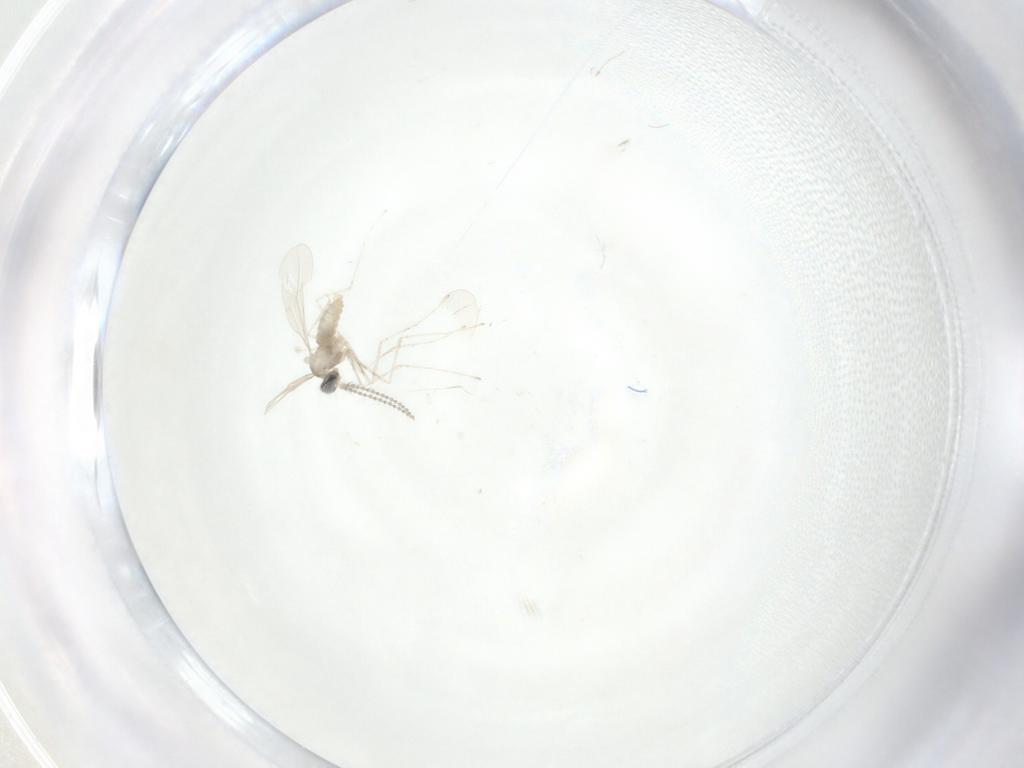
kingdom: Animalia
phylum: Arthropoda
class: Insecta
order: Diptera
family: Chironomidae
